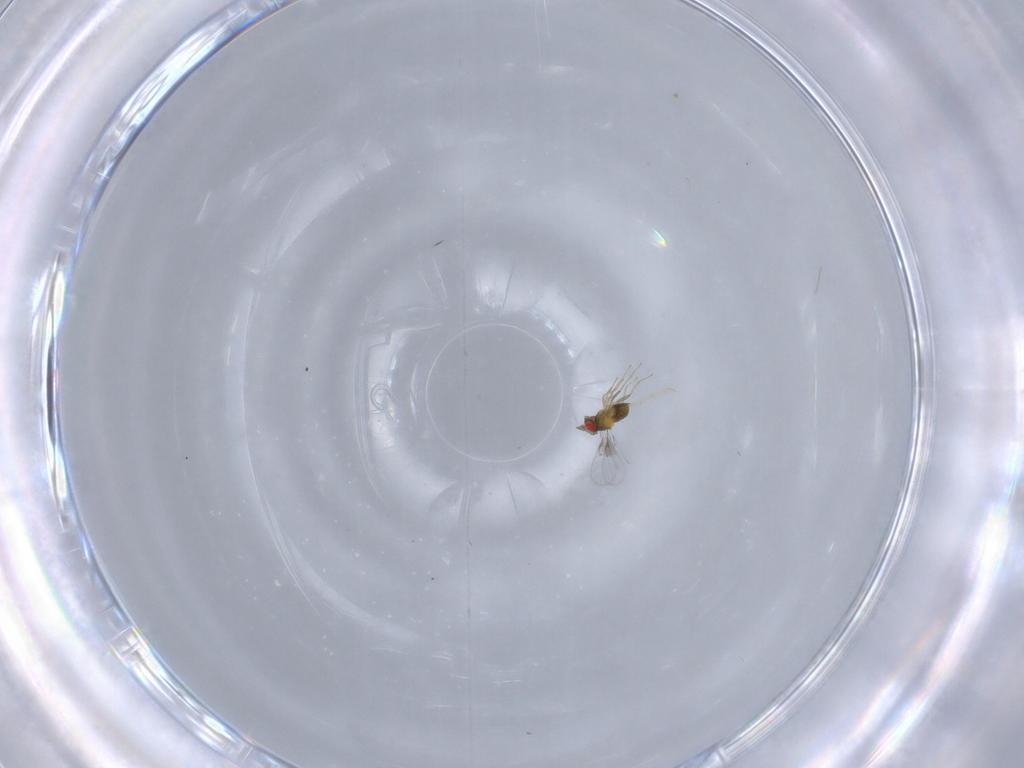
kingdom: Animalia
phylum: Arthropoda
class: Insecta
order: Hymenoptera
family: Trichogrammatidae
